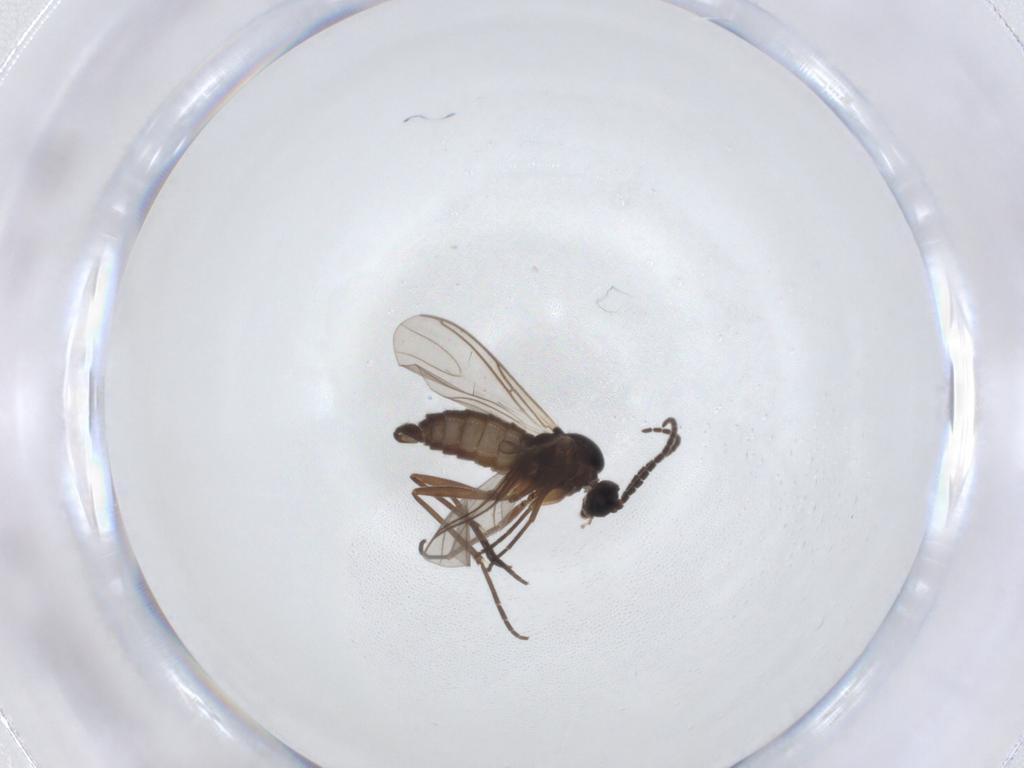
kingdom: Animalia
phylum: Arthropoda
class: Insecta
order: Diptera
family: Sciaridae
